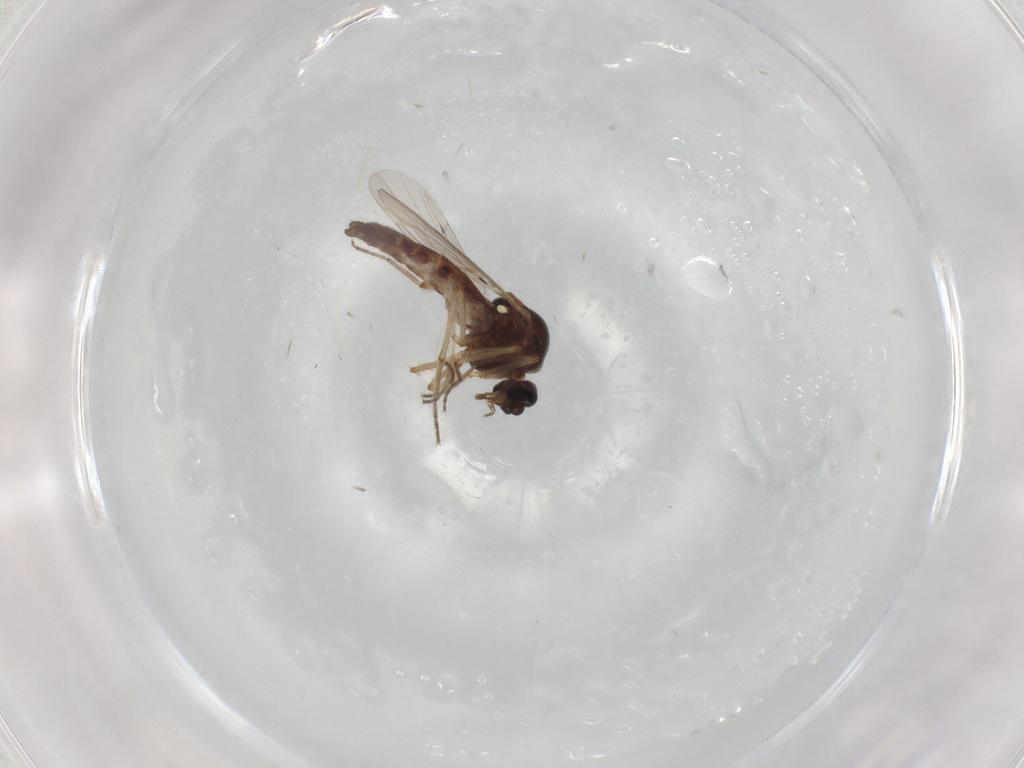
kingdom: Animalia
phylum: Arthropoda
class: Insecta
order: Diptera
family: Ceratopogonidae
